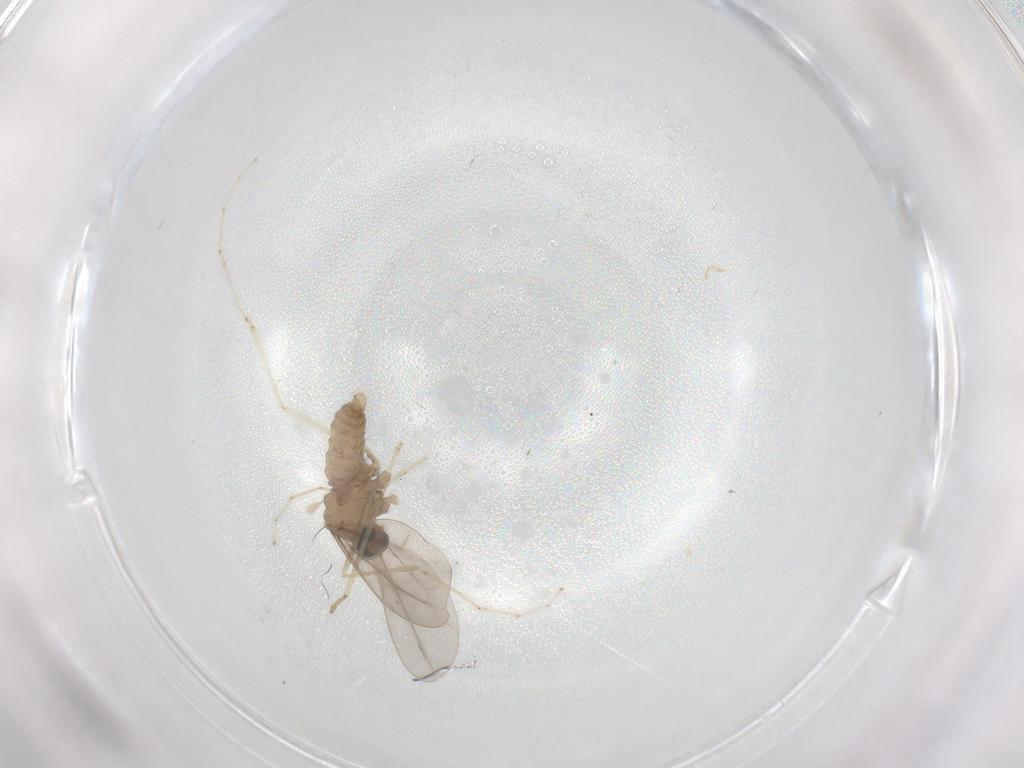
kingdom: Animalia
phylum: Arthropoda
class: Insecta
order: Diptera
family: Cecidomyiidae
